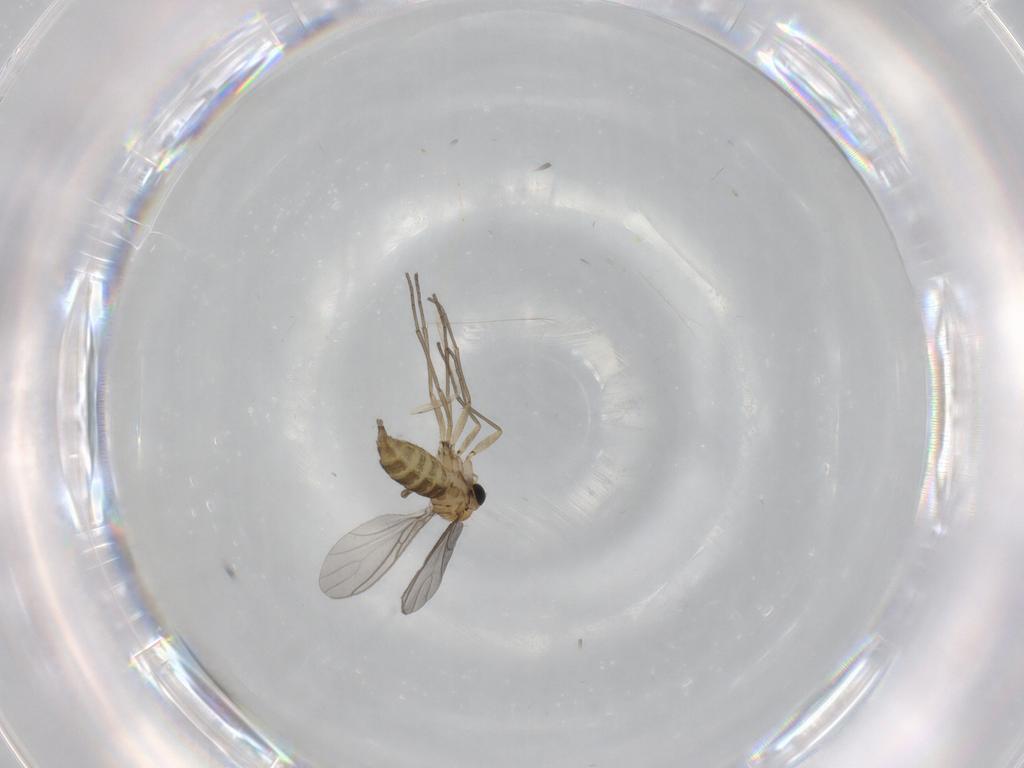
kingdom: Animalia
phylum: Arthropoda
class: Insecta
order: Diptera
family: Sciaridae
